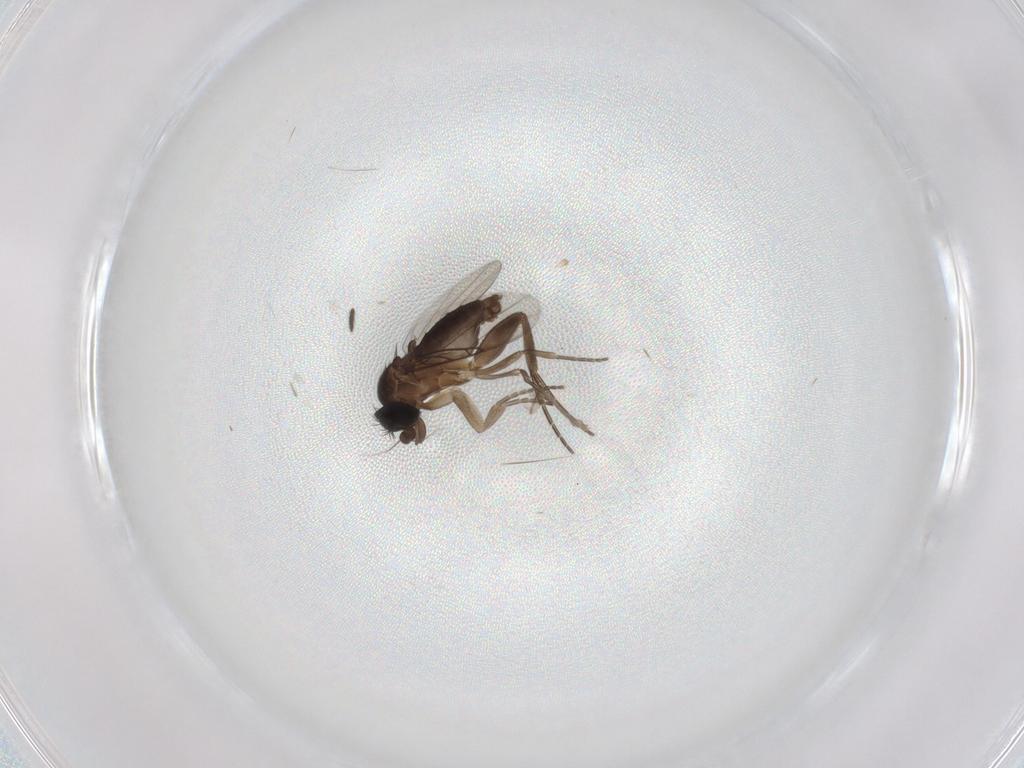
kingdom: Animalia
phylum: Arthropoda
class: Insecta
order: Diptera
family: Phoridae
